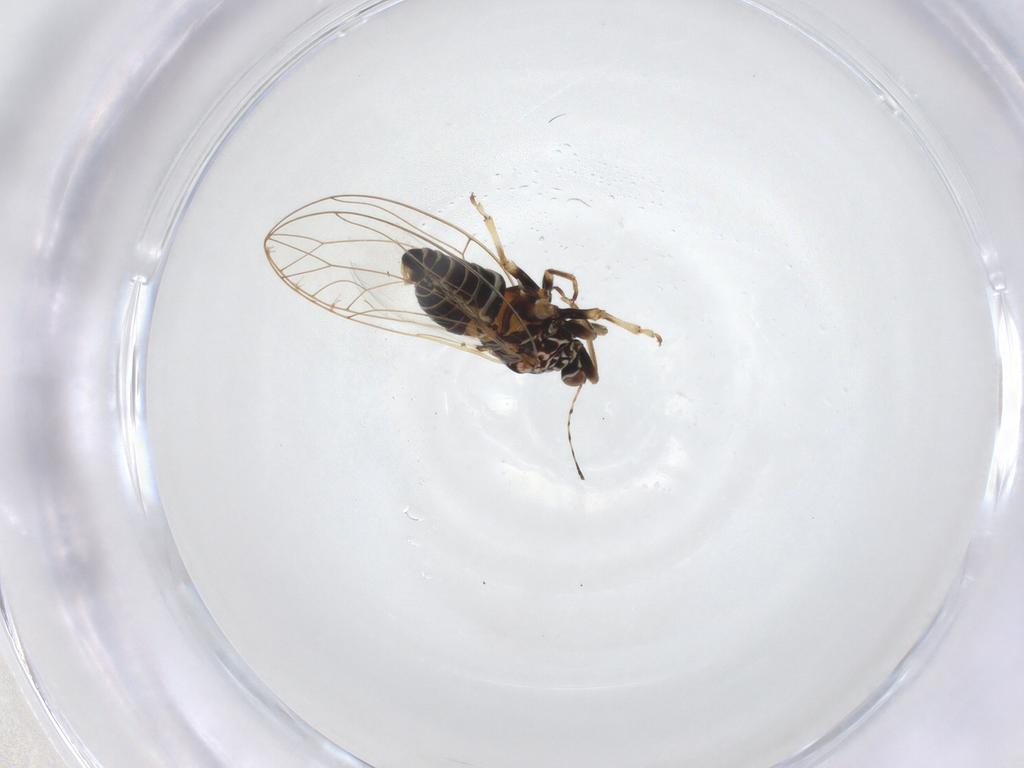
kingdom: Animalia
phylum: Arthropoda
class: Insecta
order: Hemiptera
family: Triozidae
